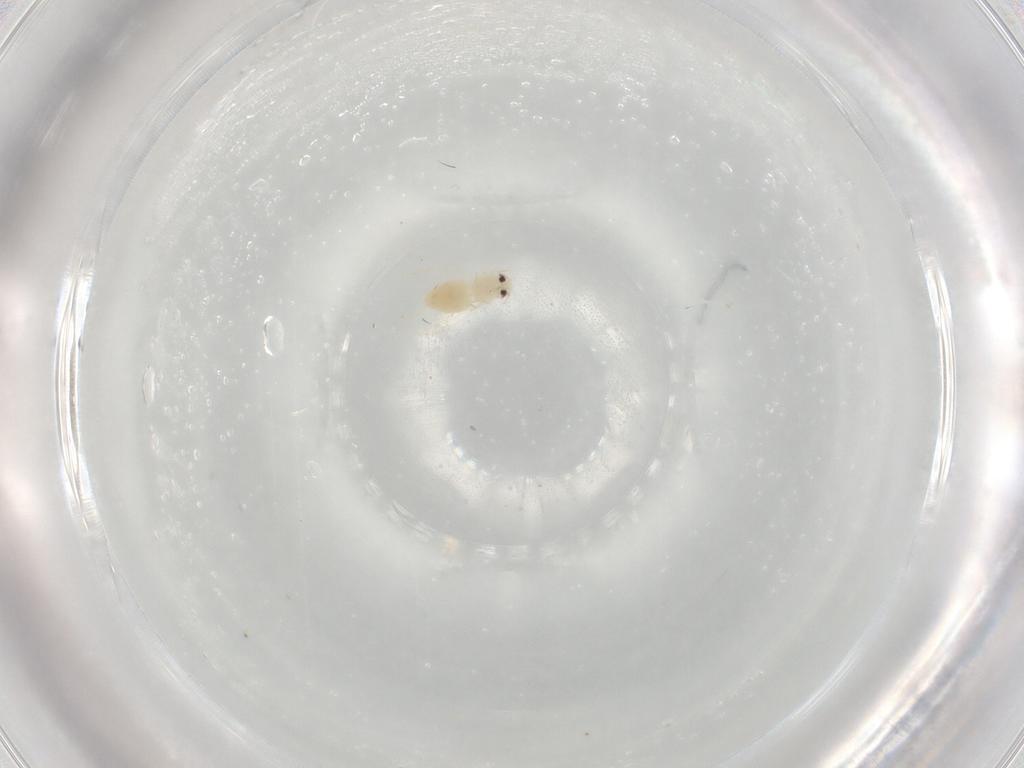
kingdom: Animalia
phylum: Arthropoda
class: Insecta
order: Hemiptera
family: Aleyrodidae
